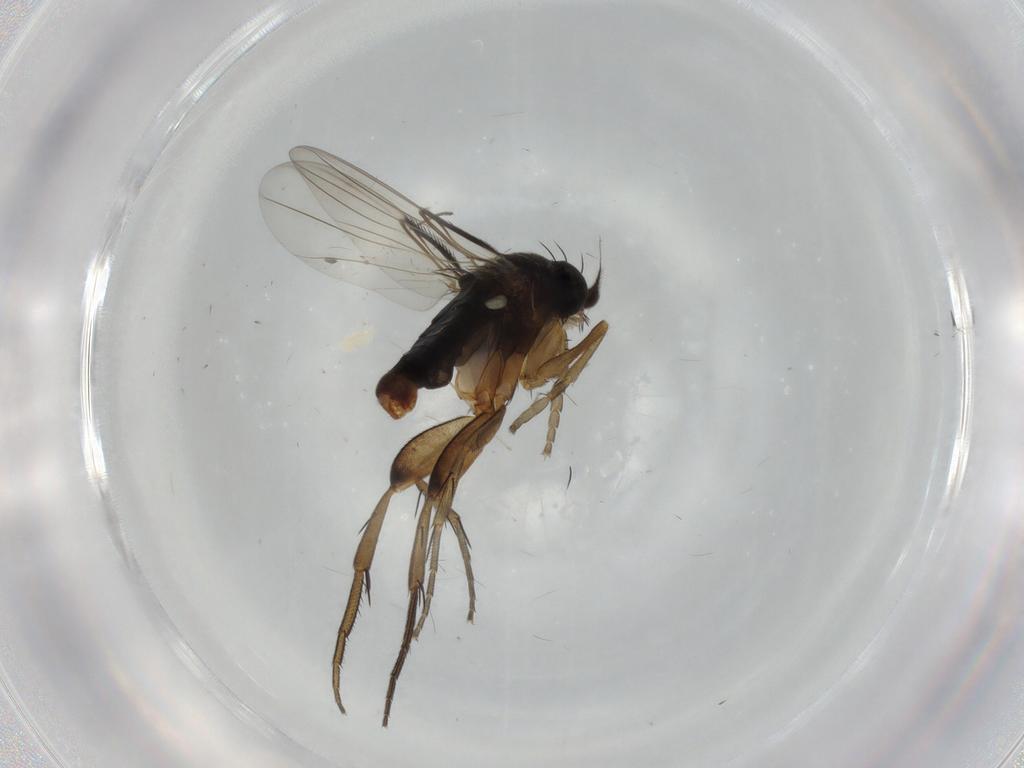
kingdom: Animalia
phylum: Arthropoda
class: Insecta
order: Diptera
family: Phoridae
